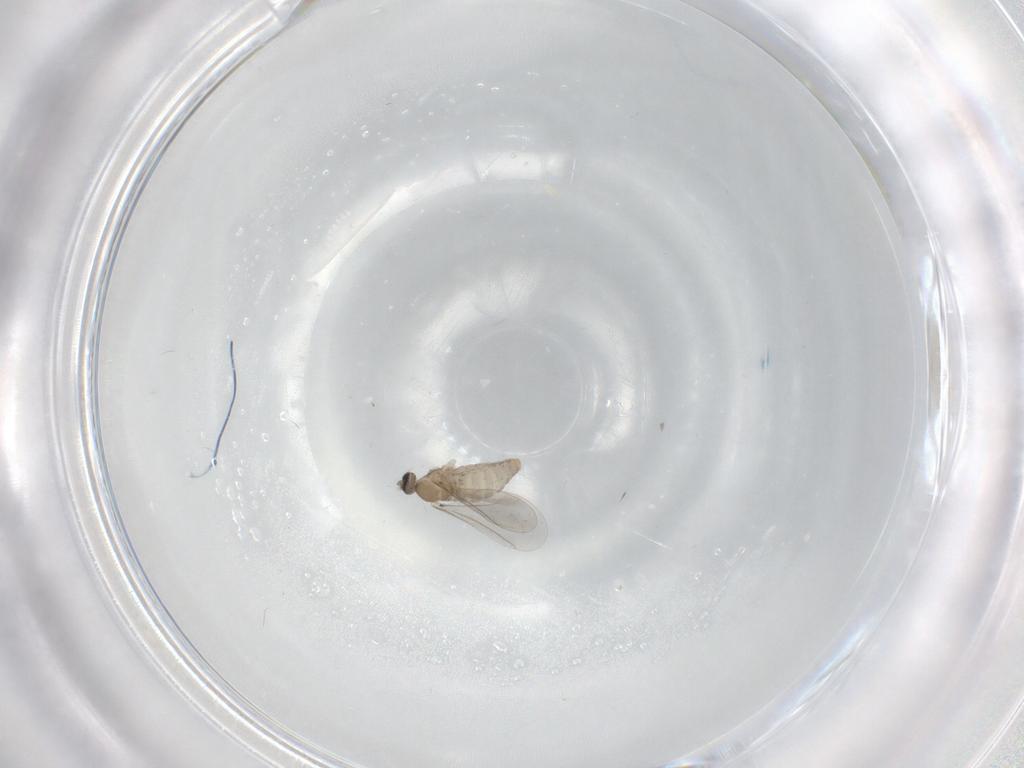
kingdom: Animalia
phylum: Arthropoda
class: Insecta
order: Diptera
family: Cecidomyiidae
